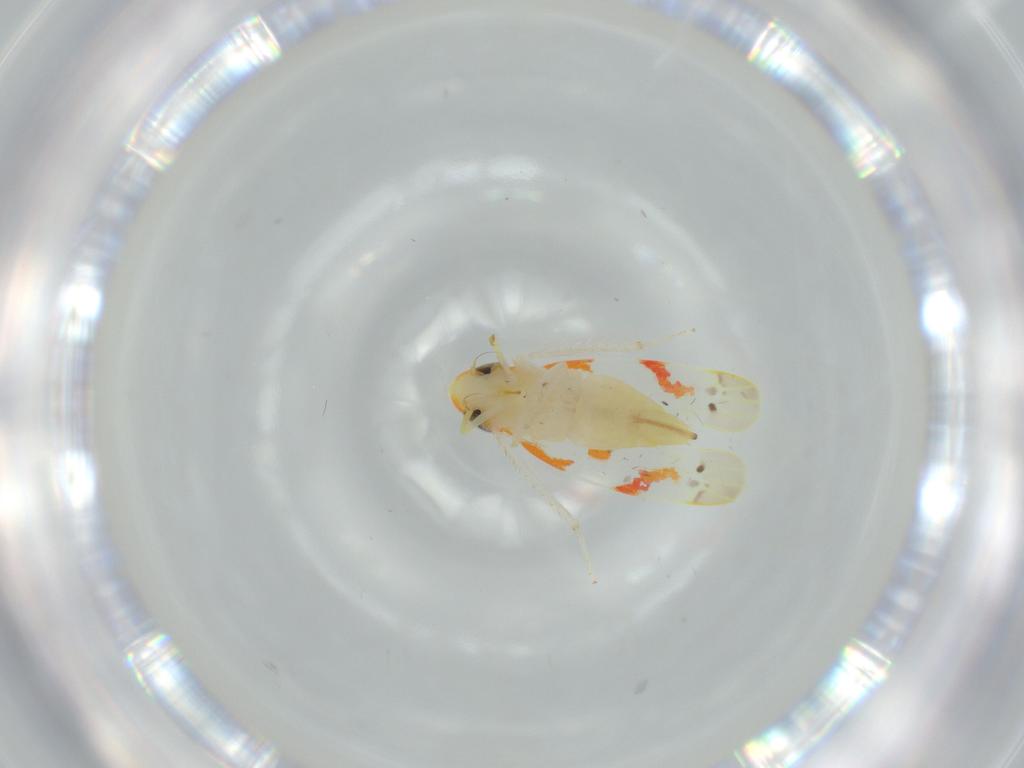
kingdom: Animalia
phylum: Arthropoda
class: Insecta
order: Hemiptera
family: Cicadellidae
